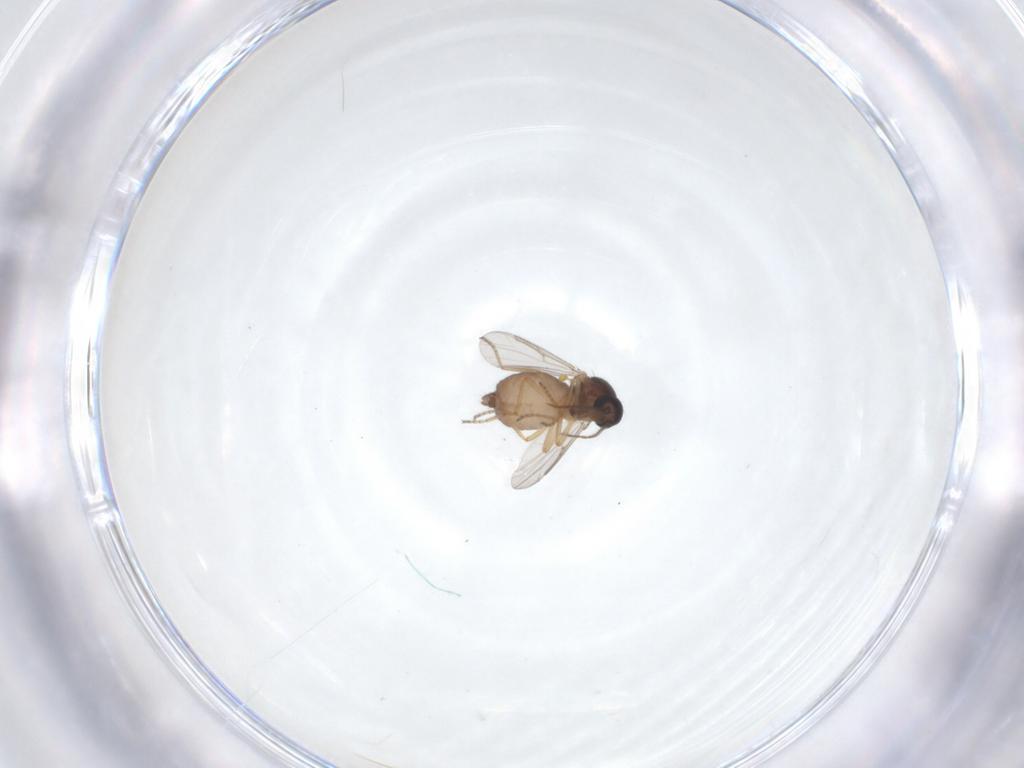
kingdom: Animalia
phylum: Arthropoda
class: Insecta
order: Diptera
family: Ceratopogonidae
